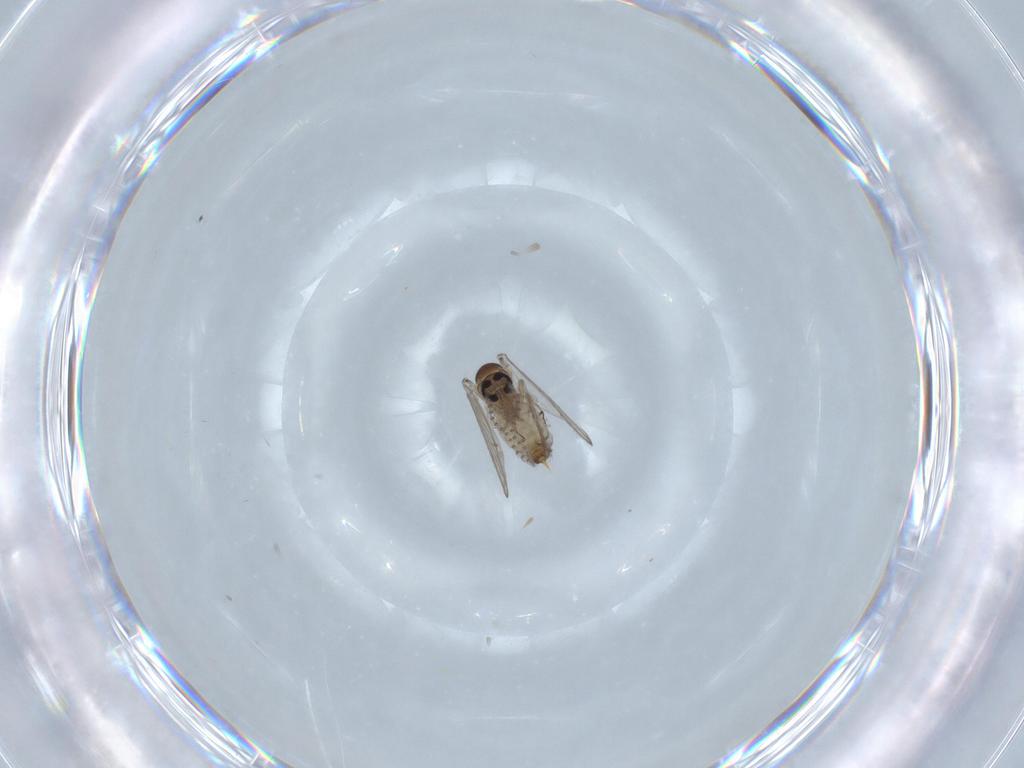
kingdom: Animalia
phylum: Arthropoda
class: Insecta
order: Diptera
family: Psychodidae
